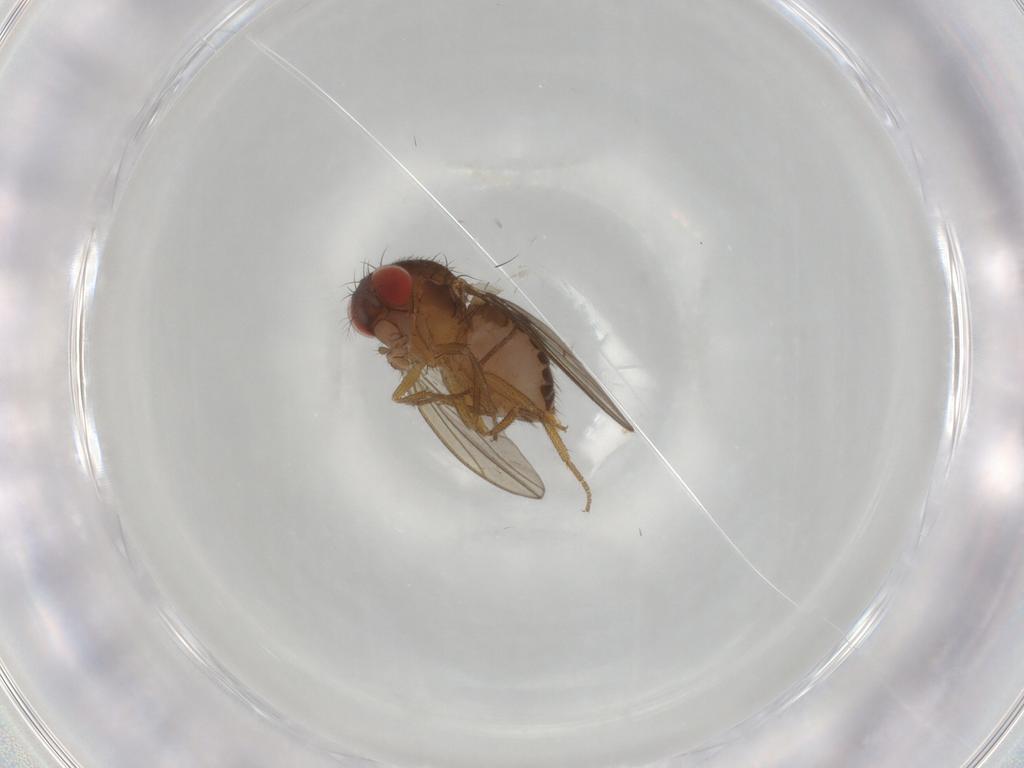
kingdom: Animalia
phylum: Arthropoda
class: Insecta
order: Diptera
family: Drosophilidae
